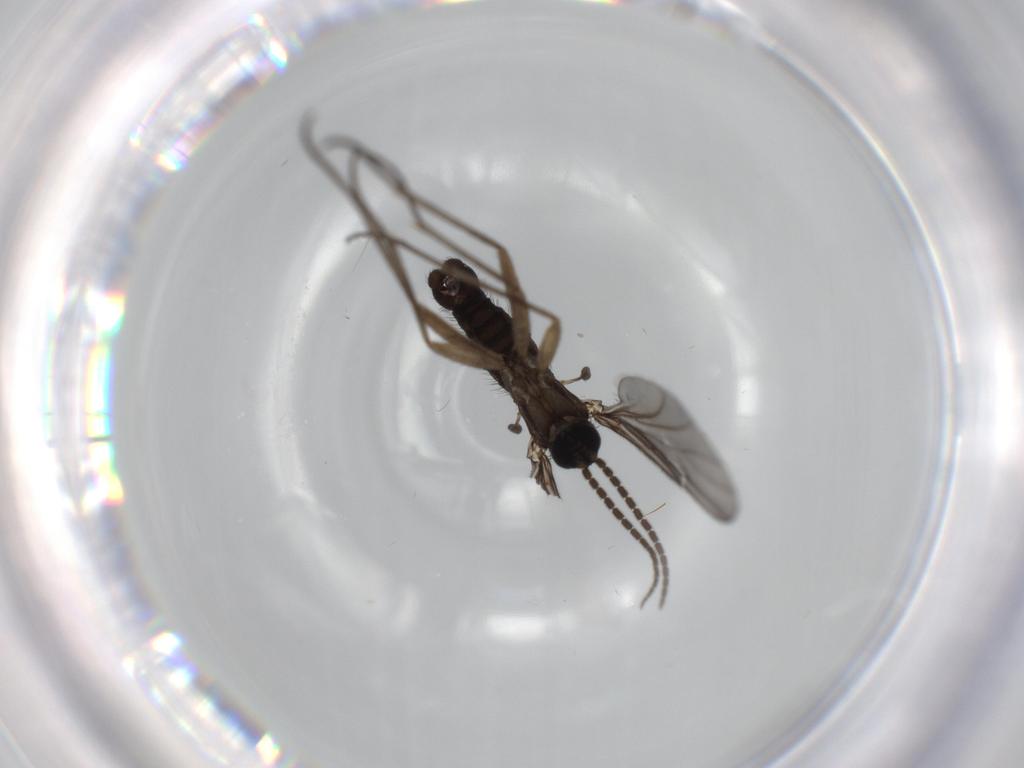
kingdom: Animalia
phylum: Arthropoda
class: Insecta
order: Diptera
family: Sciaridae
